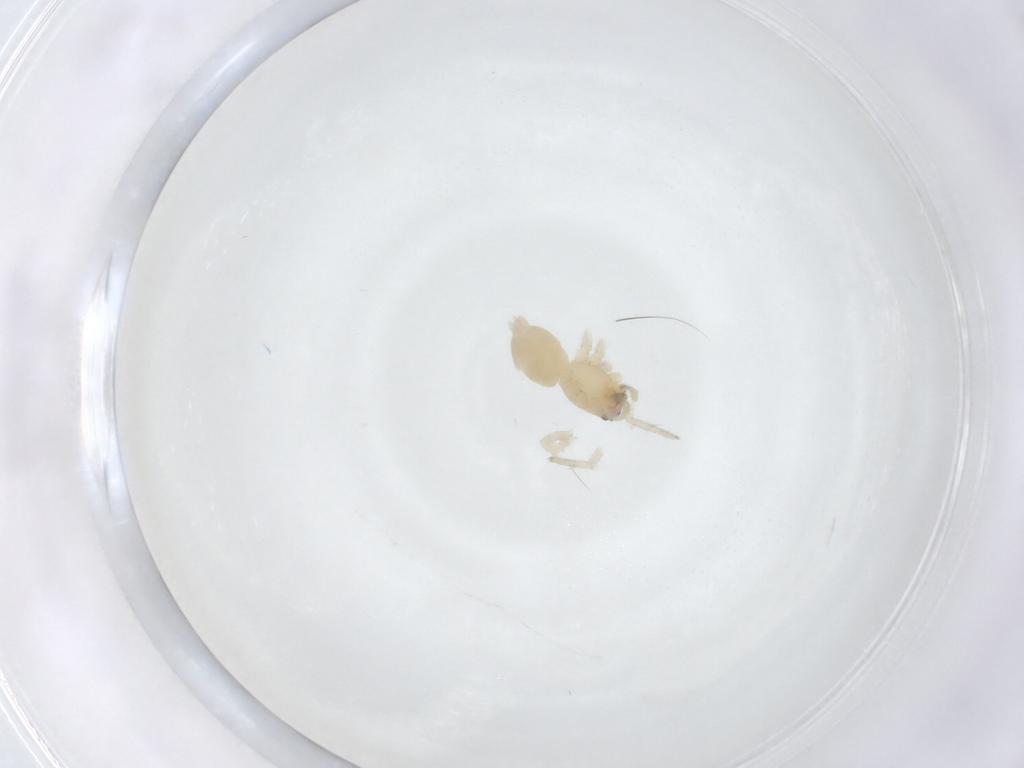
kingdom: Animalia
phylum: Arthropoda
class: Arachnida
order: Araneae
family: Amaurobiidae
